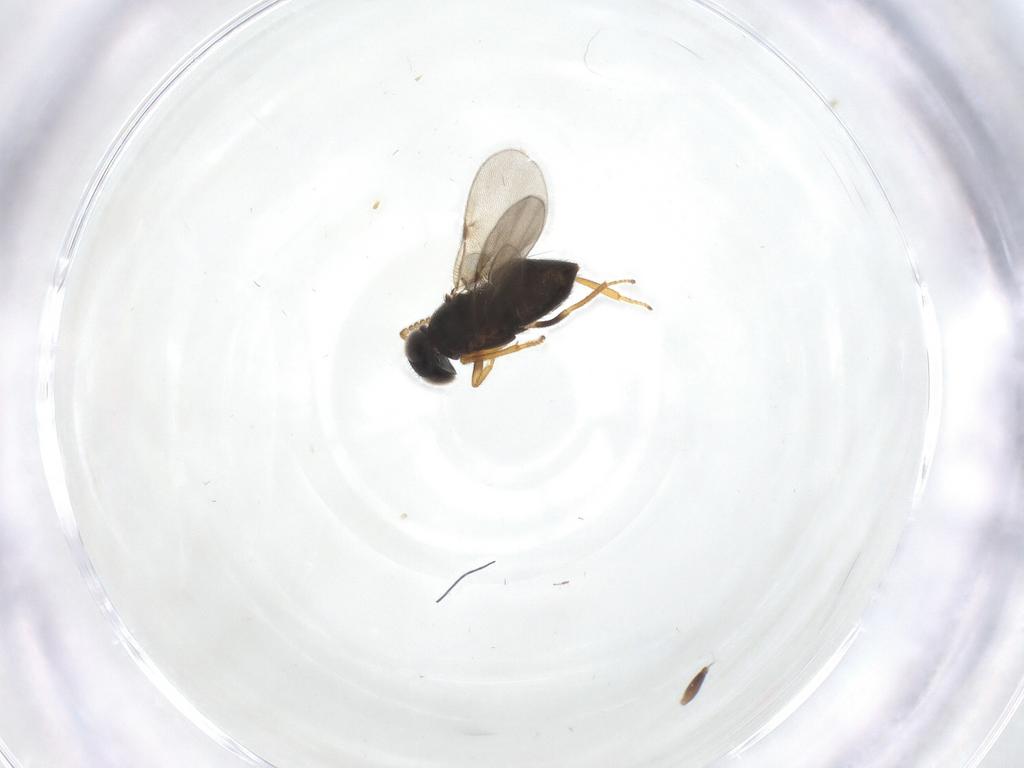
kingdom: Animalia
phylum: Arthropoda
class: Insecta
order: Hymenoptera
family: Encyrtidae
